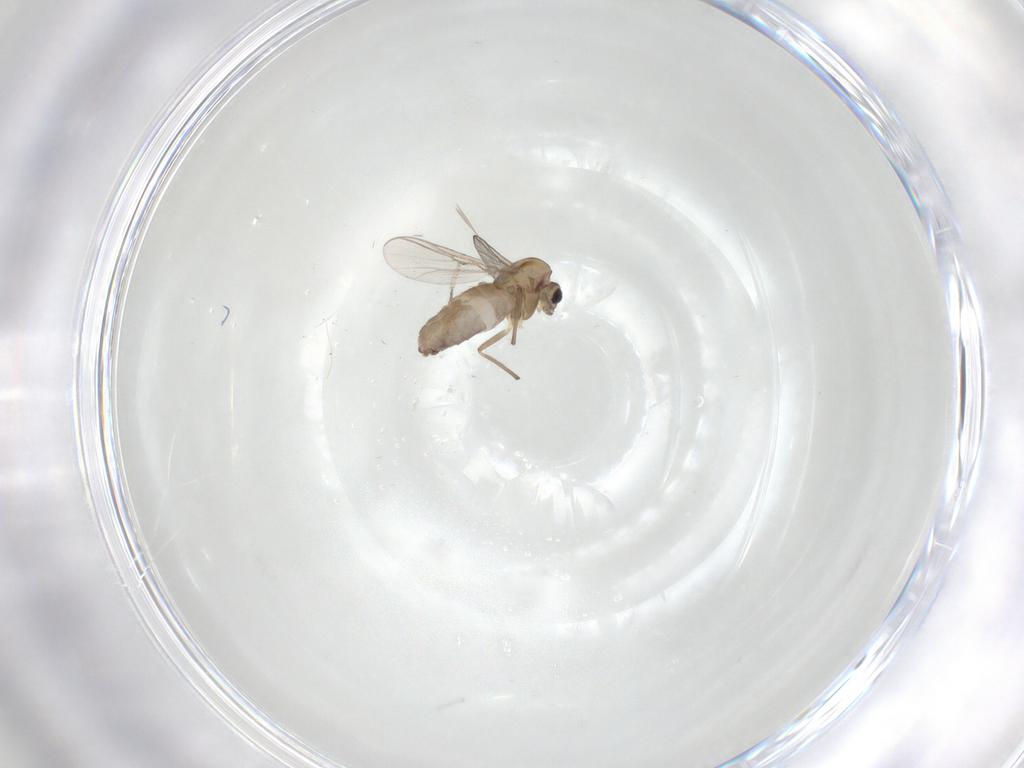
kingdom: Animalia
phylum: Arthropoda
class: Insecta
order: Diptera
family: Chironomidae
